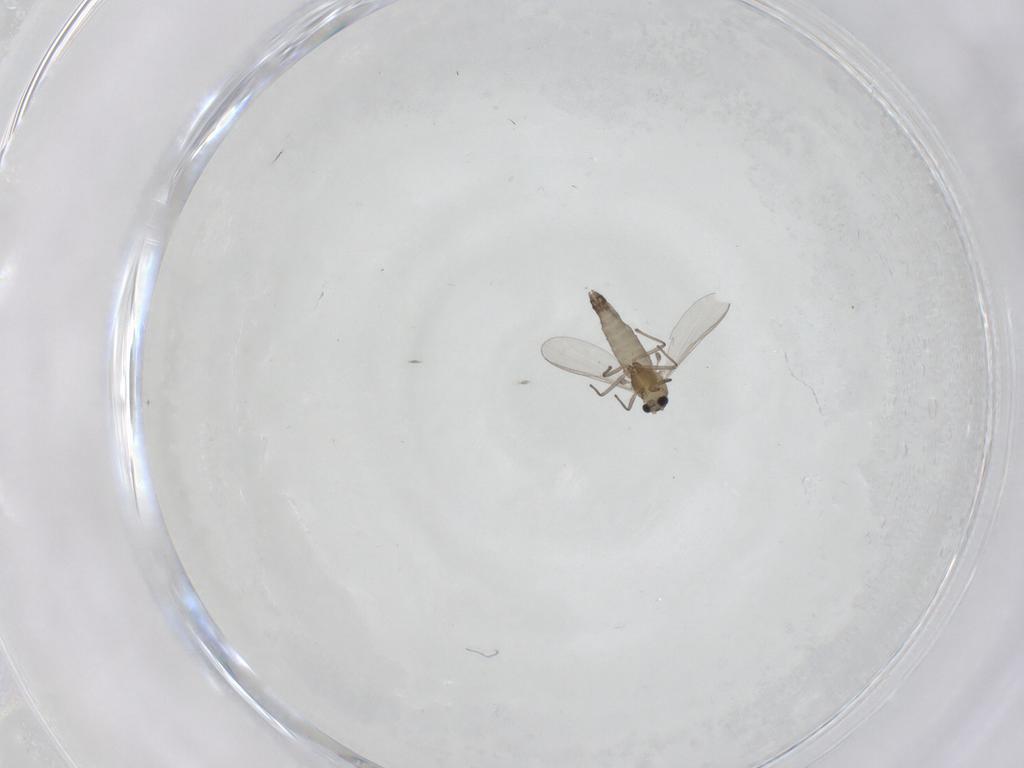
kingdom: Animalia
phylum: Arthropoda
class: Insecta
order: Diptera
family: Chironomidae
